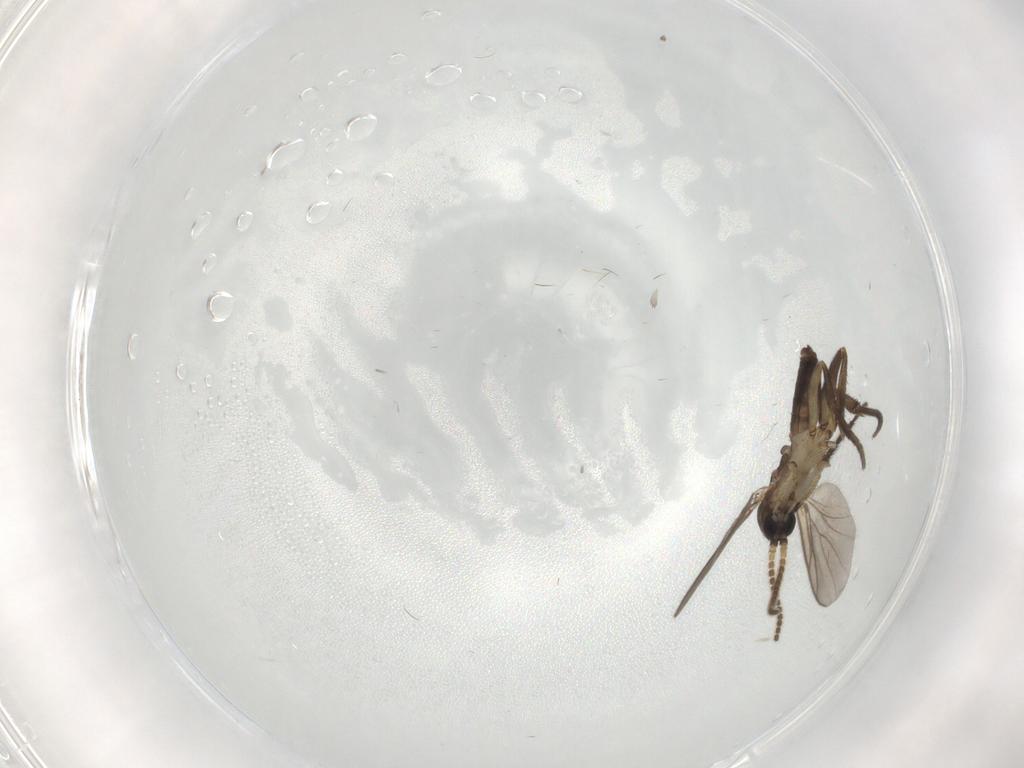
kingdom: Animalia
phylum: Arthropoda
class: Insecta
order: Diptera
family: Ditomyiidae
